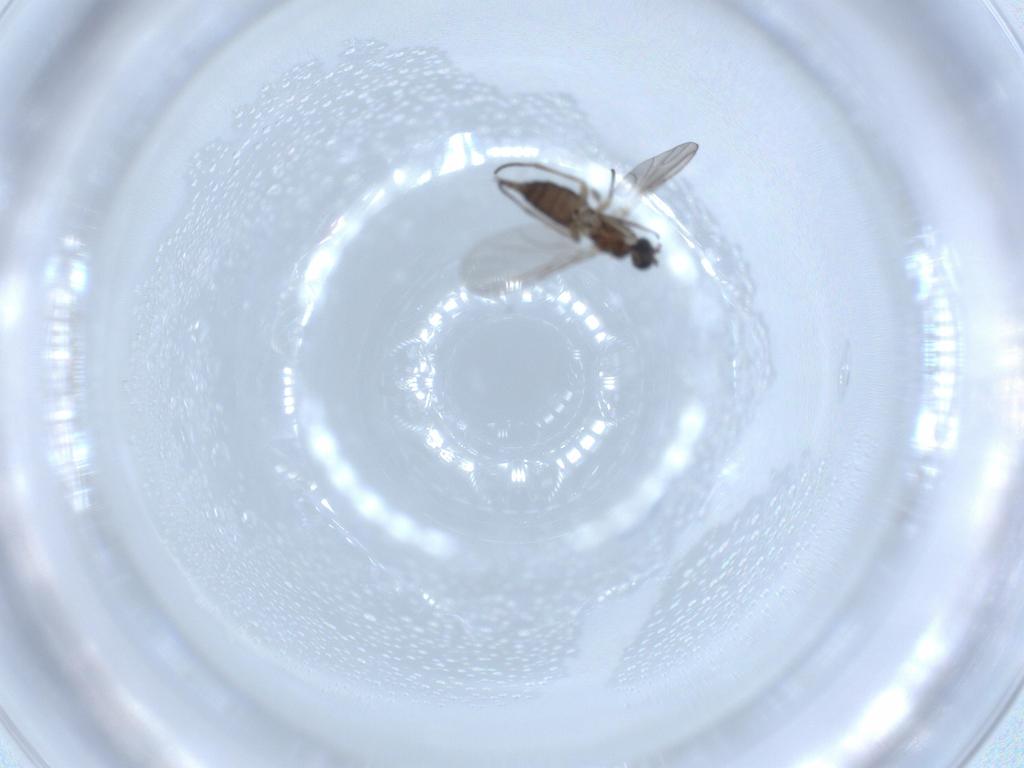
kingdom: Animalia
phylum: Arthropoda
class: Insecta
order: Diptera
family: Sciaridae
